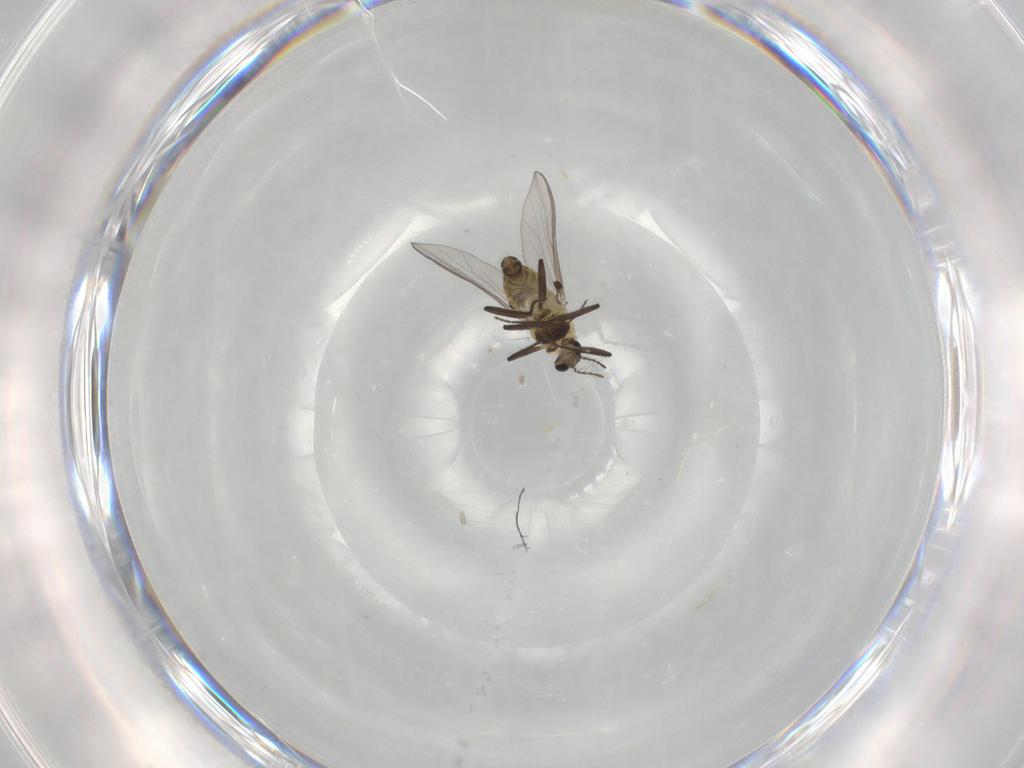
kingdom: Animalia
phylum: Arthropoda
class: Insecta
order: Diptera
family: Chironomidae
